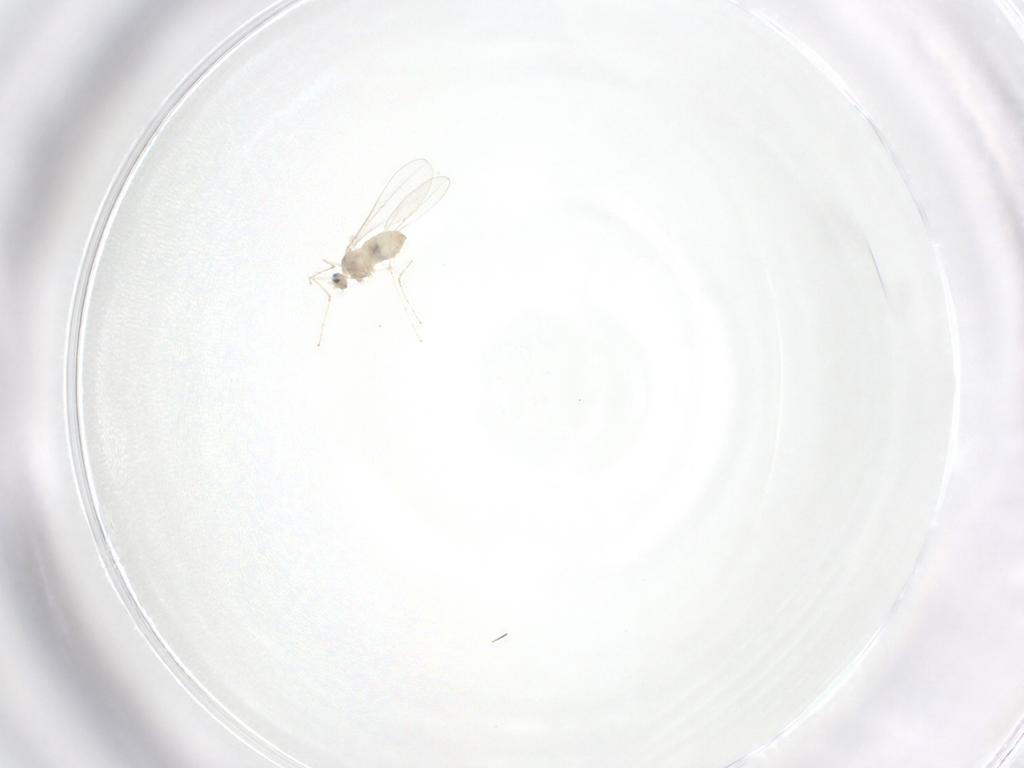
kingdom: Animalia
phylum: Arthropoda
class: Insecta
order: Diptera
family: Cecidomyiidae
